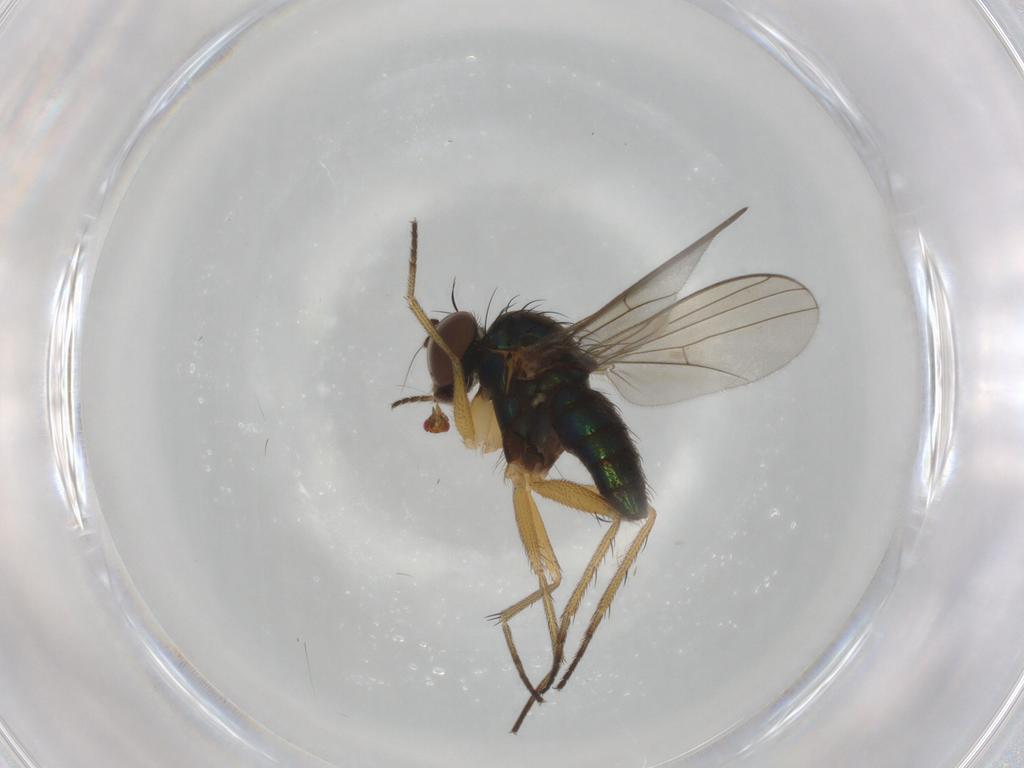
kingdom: Animalia
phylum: Arthropoda
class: Insecta
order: Diptera
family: Dolichopodidae
